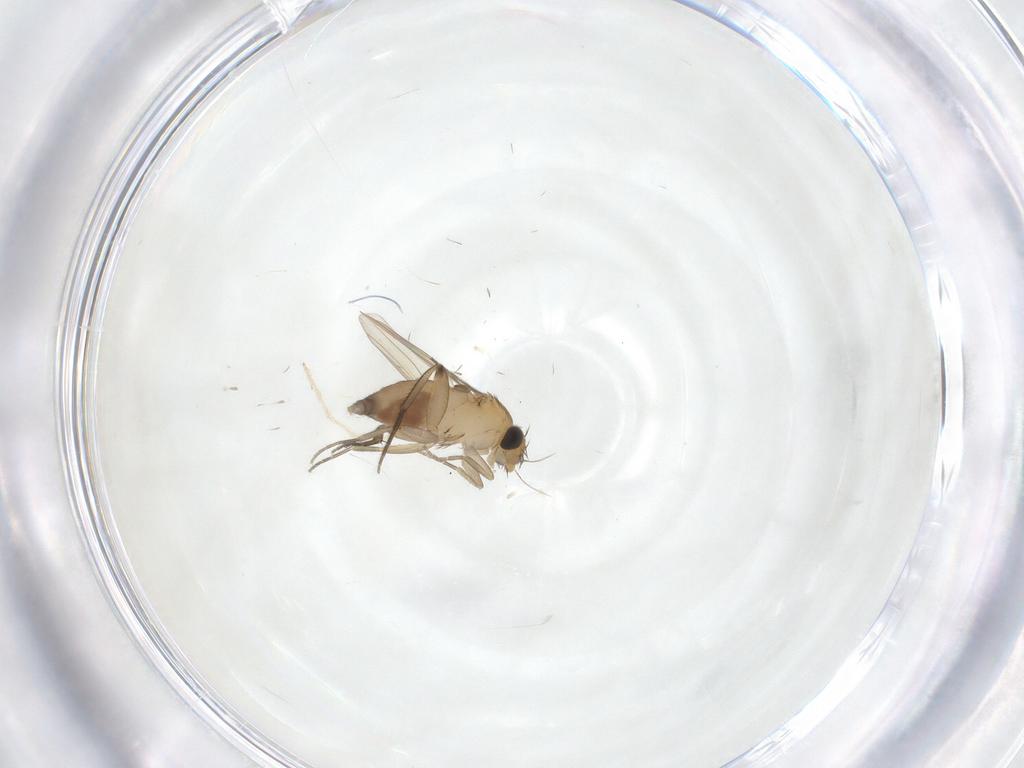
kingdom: Animalia
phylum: Arthropoda
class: Insecta
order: Diptera
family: Phoridae
